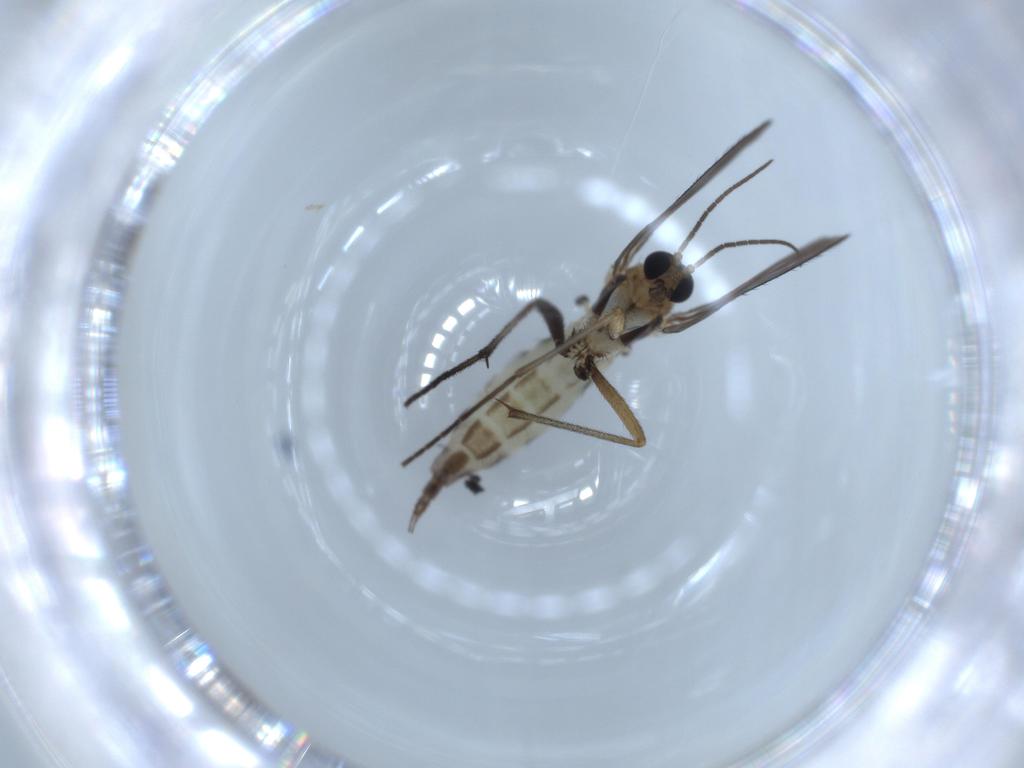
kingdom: Animalia
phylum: Arthropoda
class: Insecta
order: Diptera
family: Sciaridae
